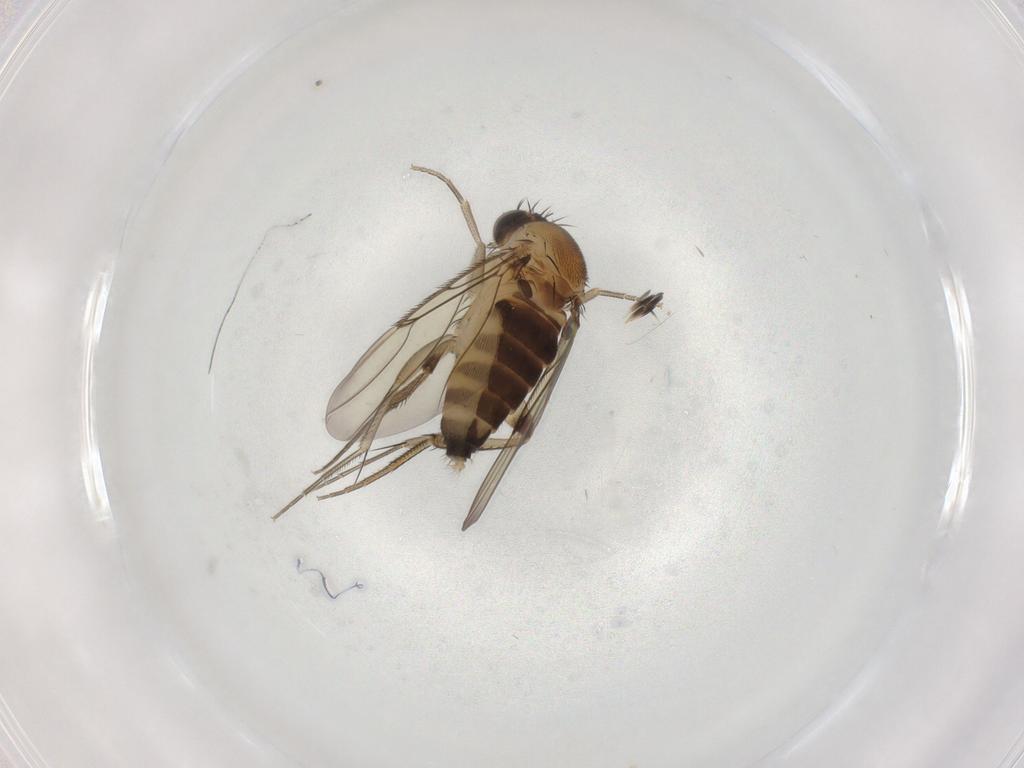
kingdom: Animalia
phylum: Arthropoda
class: Insecta
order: Diptera
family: Phoridae
